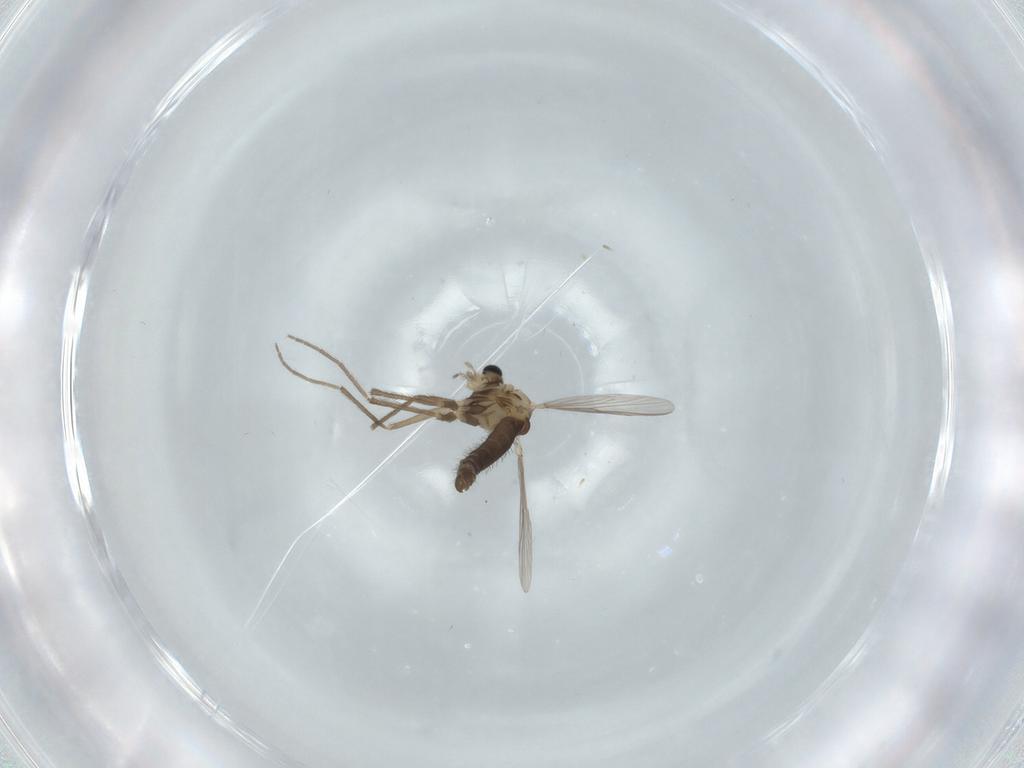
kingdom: Animalia
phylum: Arthropoda
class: Insecta
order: Diptera
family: Chironomidae
